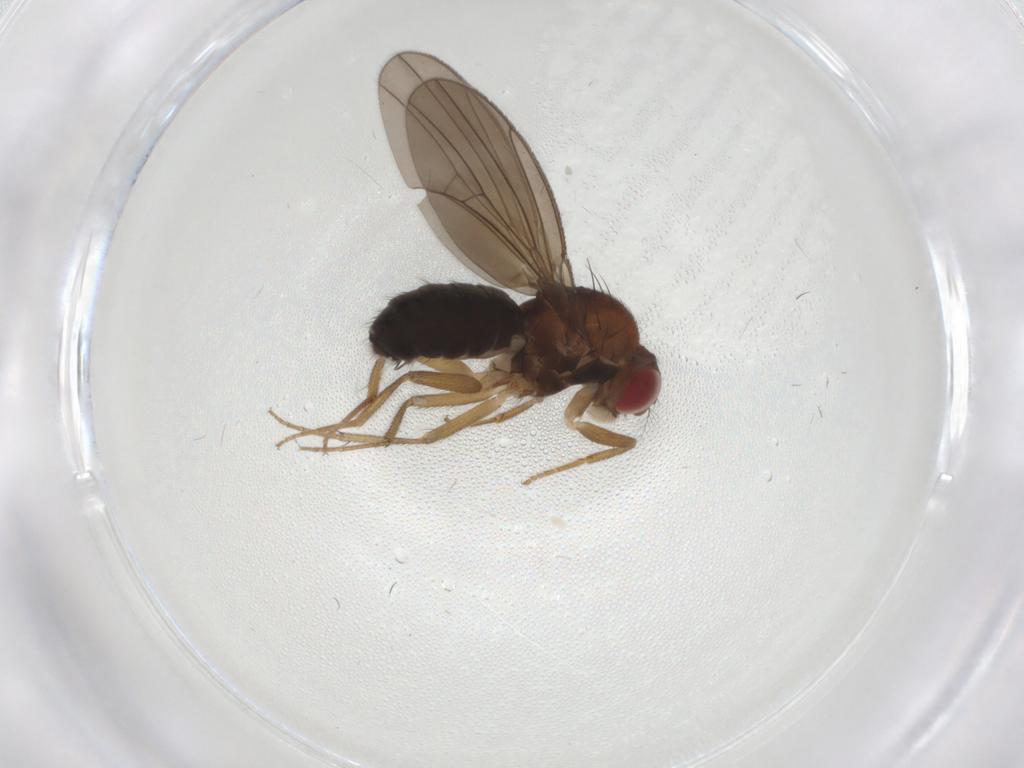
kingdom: Animalia
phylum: Arthropoda
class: Insecta
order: Diptera
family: Drosophilidae
